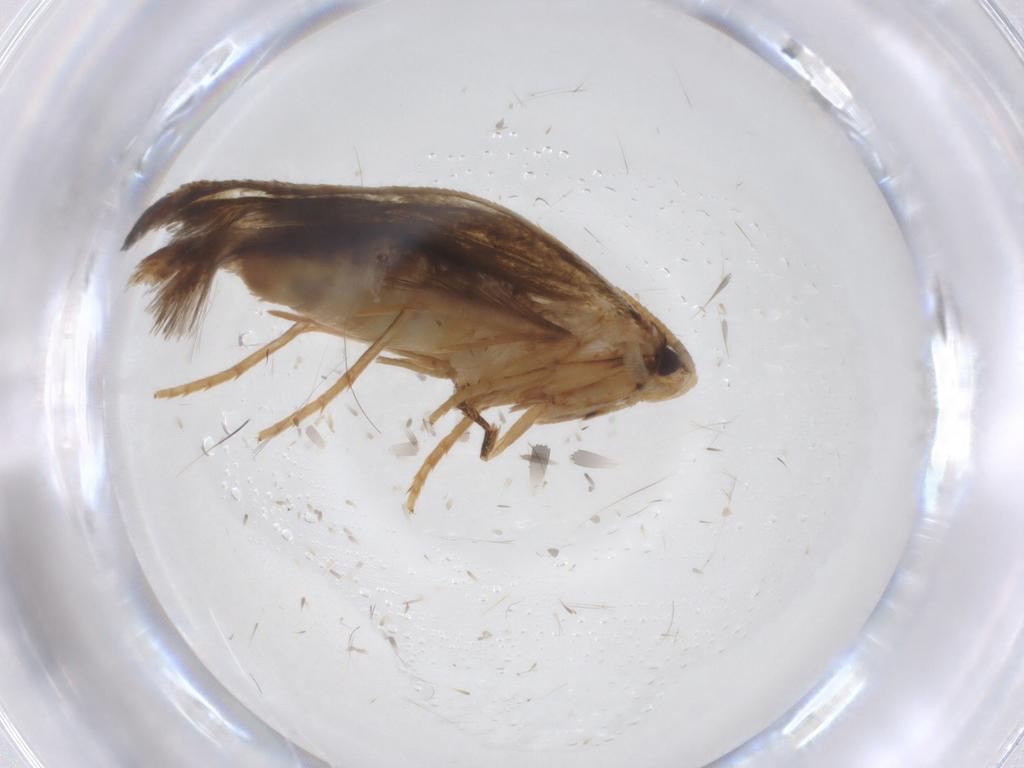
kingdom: Animalia
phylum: Arthropoda
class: Insecta
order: Lepidoptera
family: Tineidae
